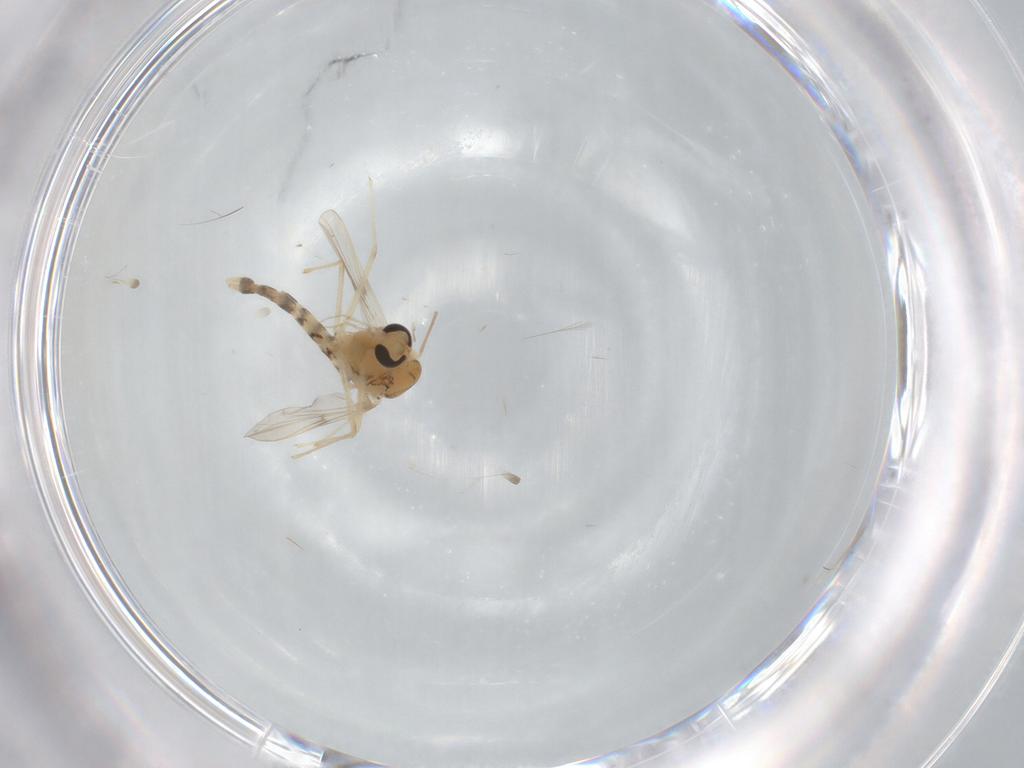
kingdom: Animalia
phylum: Arthropoda
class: Insecta
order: Diptera
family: Chironomidae
